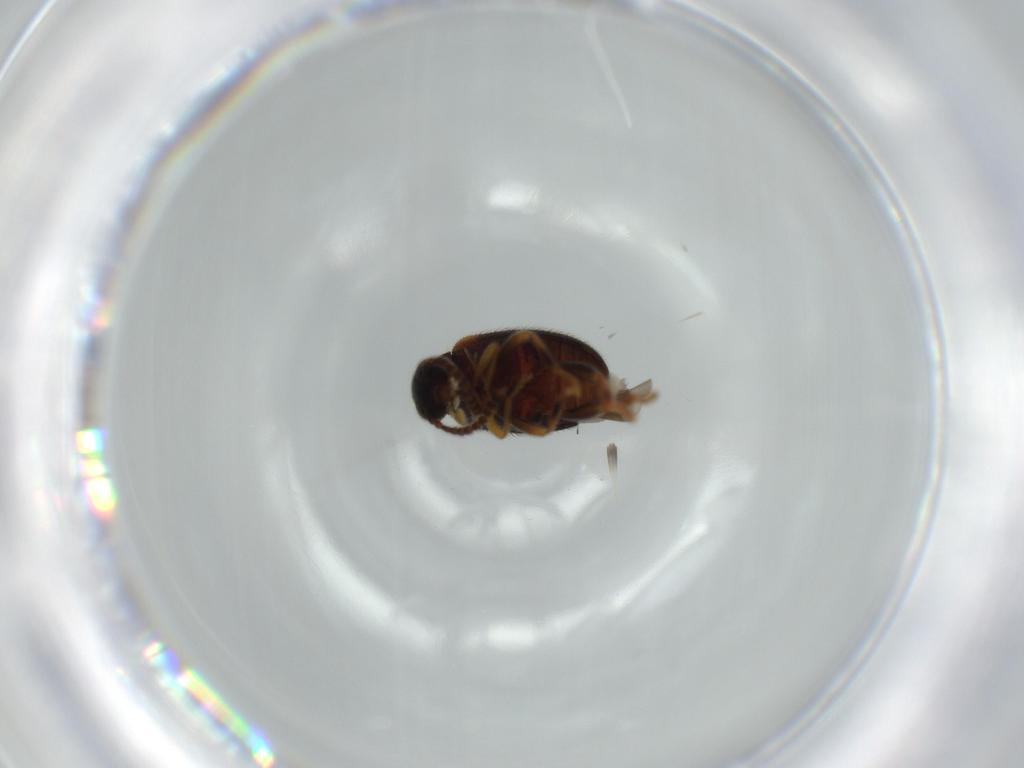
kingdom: Animalia
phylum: Arthropoda
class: Insecta
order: Coleoptera
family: Aderidae
